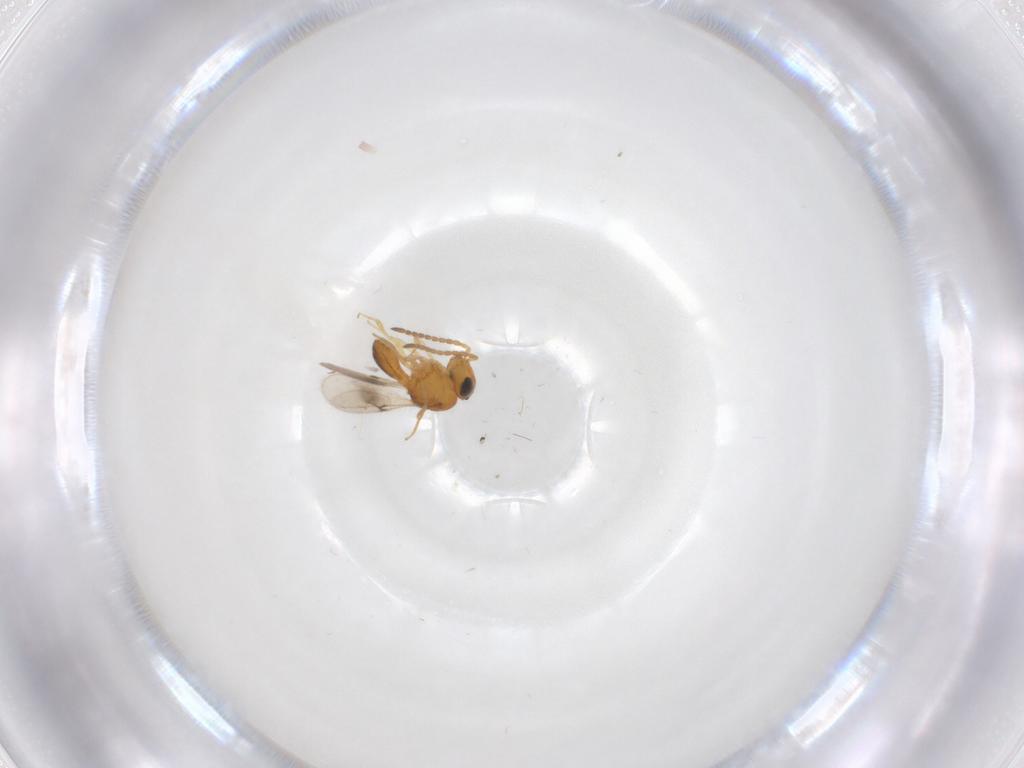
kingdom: Animalia
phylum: Arthropoda
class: Insecta
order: Hymenoptera
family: Scelionidae
